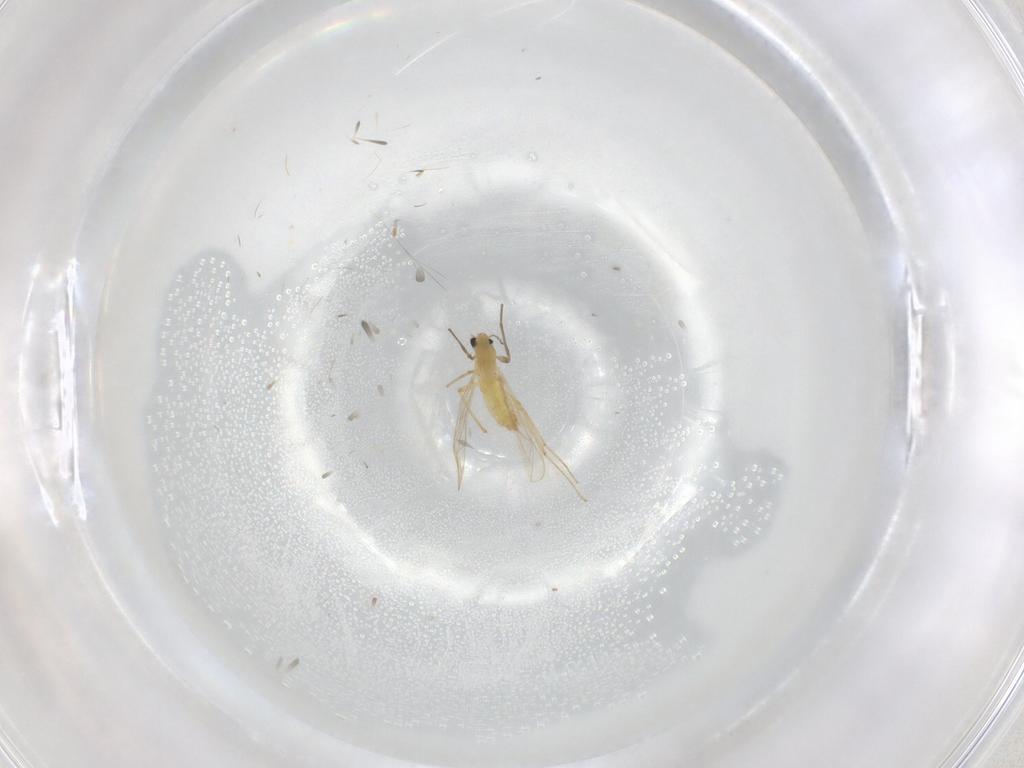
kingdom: Animalia
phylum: Arthropoda
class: Insecta
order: Diptera
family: Chironomidae
